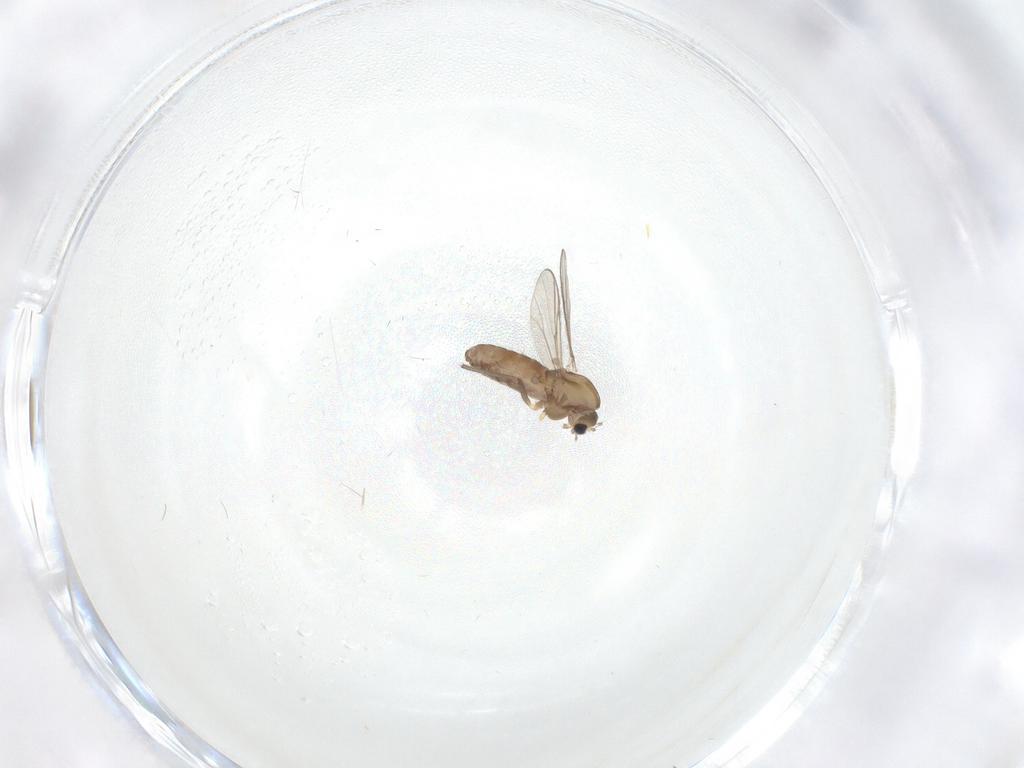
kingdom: Animalia
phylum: Arthropoda
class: Insecta
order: Diptera
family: Chironomidae
